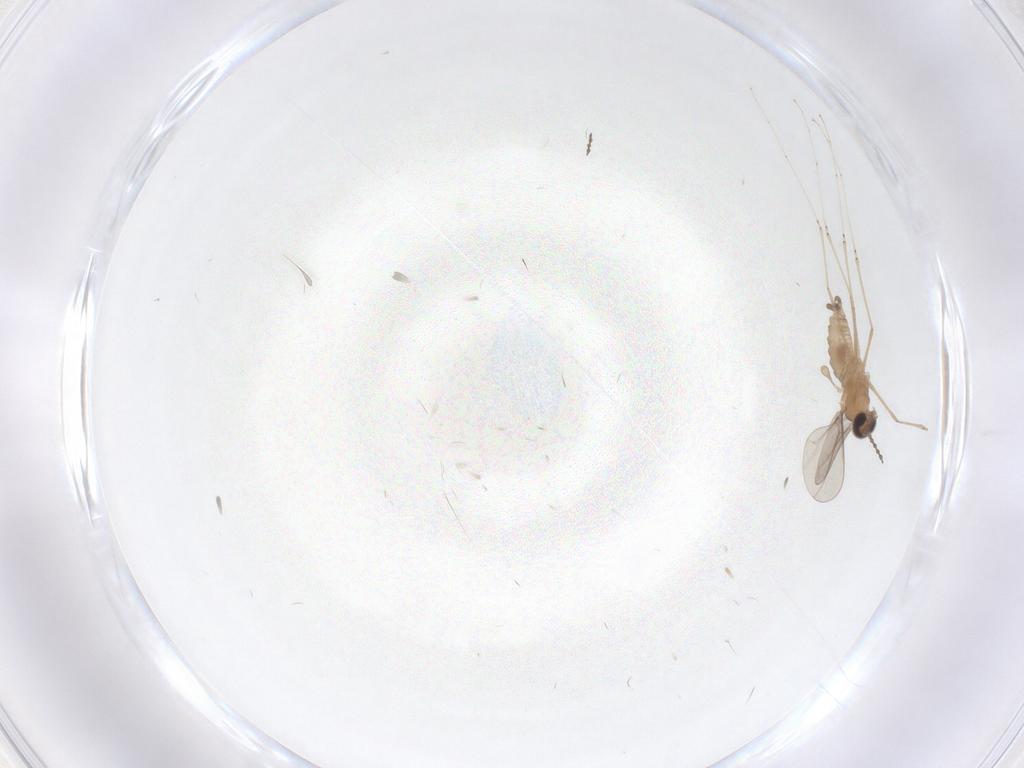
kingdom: Animalia
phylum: Arthropoda
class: Insecta
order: Diptera
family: Cecidomyiidae
